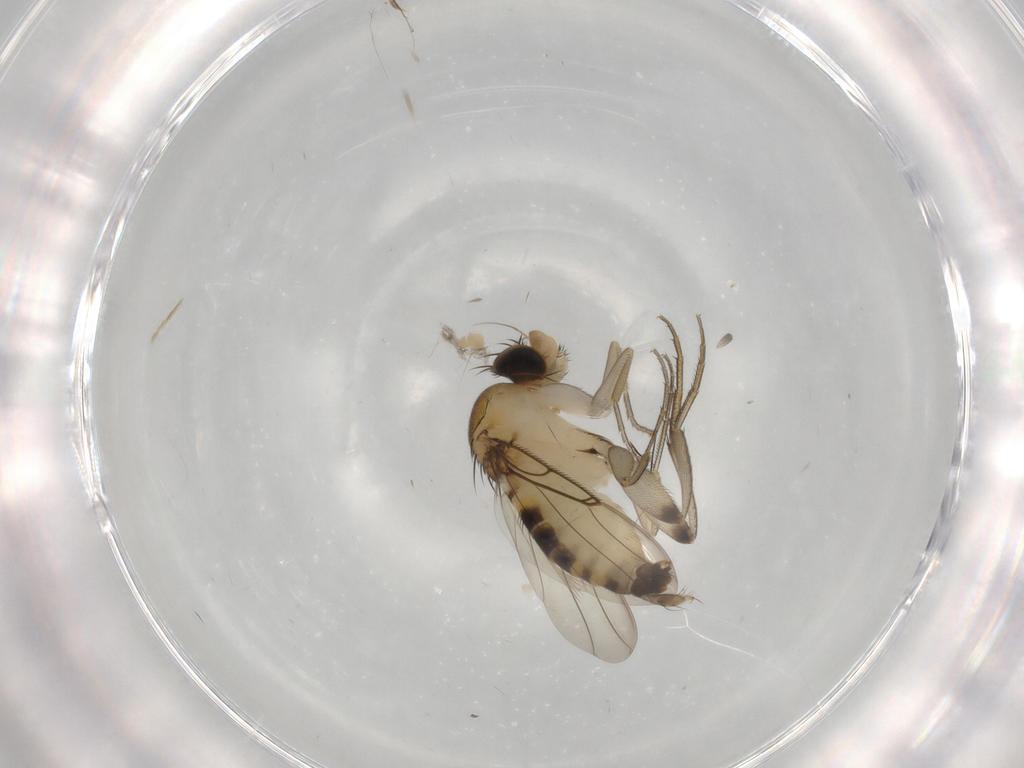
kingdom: Animalia
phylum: Arthropoda
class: Insecta
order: Diptera
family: Chironomidae
